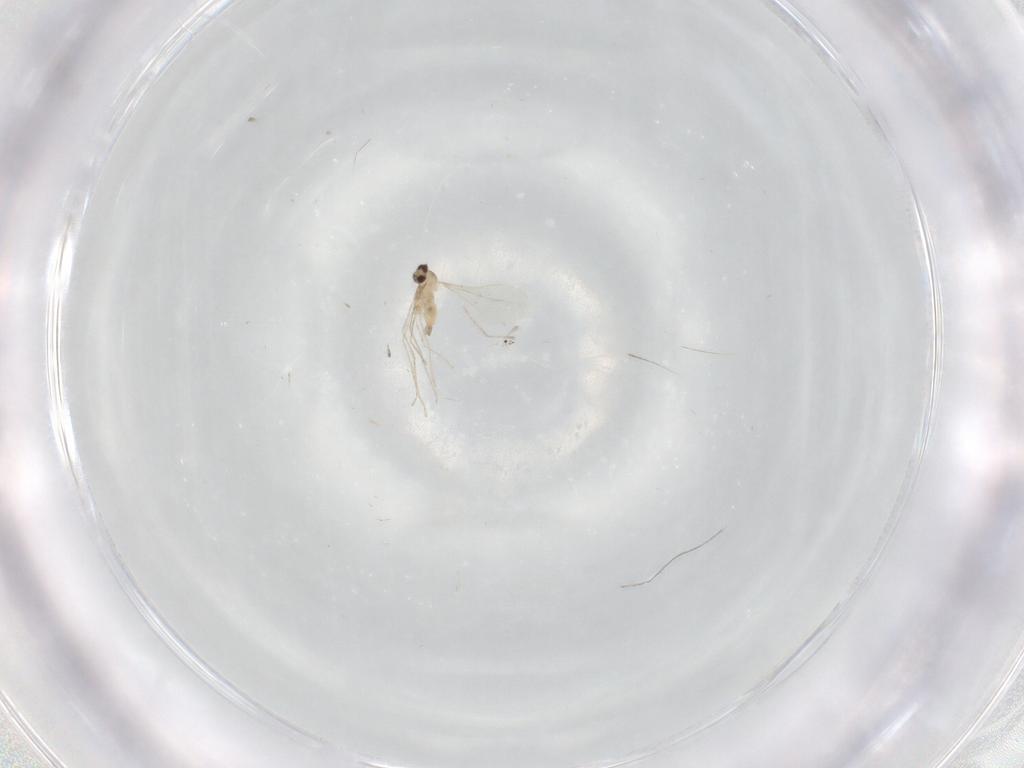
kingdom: Animalia
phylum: Arthropoda
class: Insecta
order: Diptera
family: Cecidomyiidae
